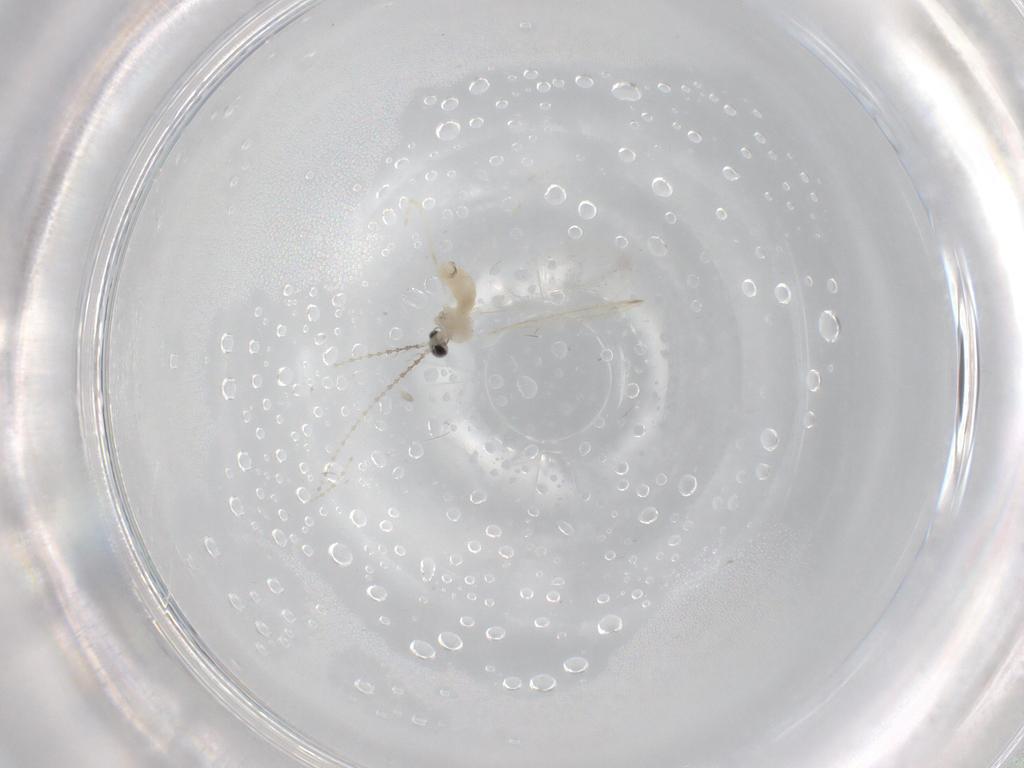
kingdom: Animalia
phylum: Arthropoda
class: Insecta
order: Diptera
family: Cecidomyiidae
